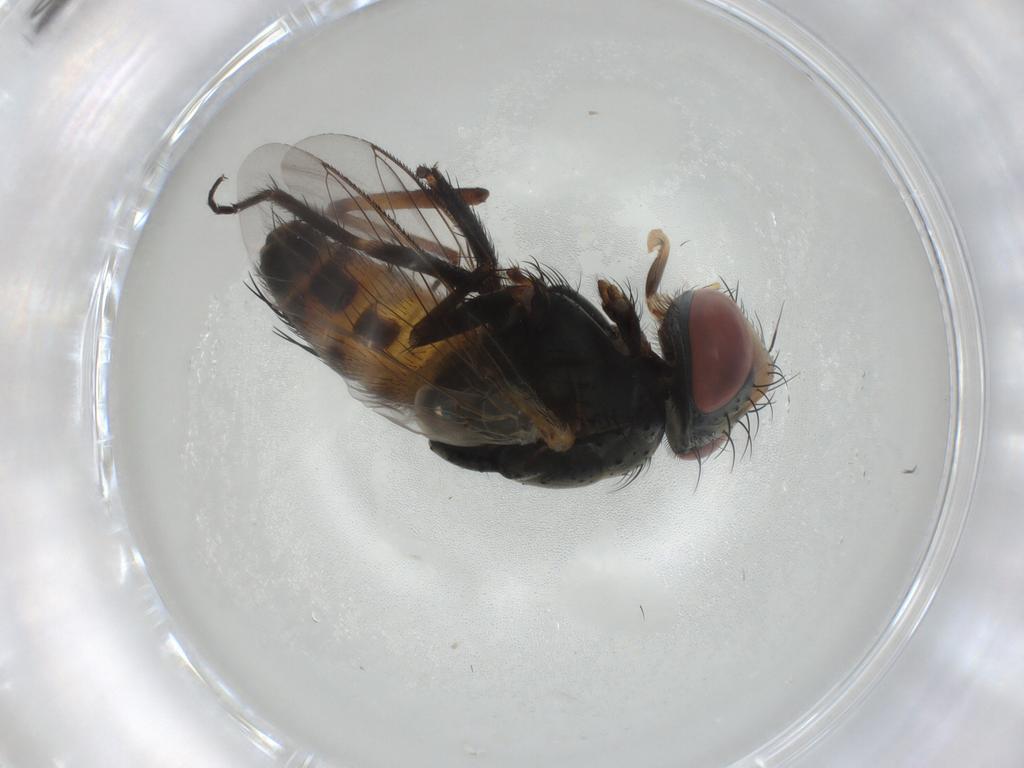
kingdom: Animalia
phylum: Arthropoda
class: Insecta
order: Diptera
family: Sarcophagidae
